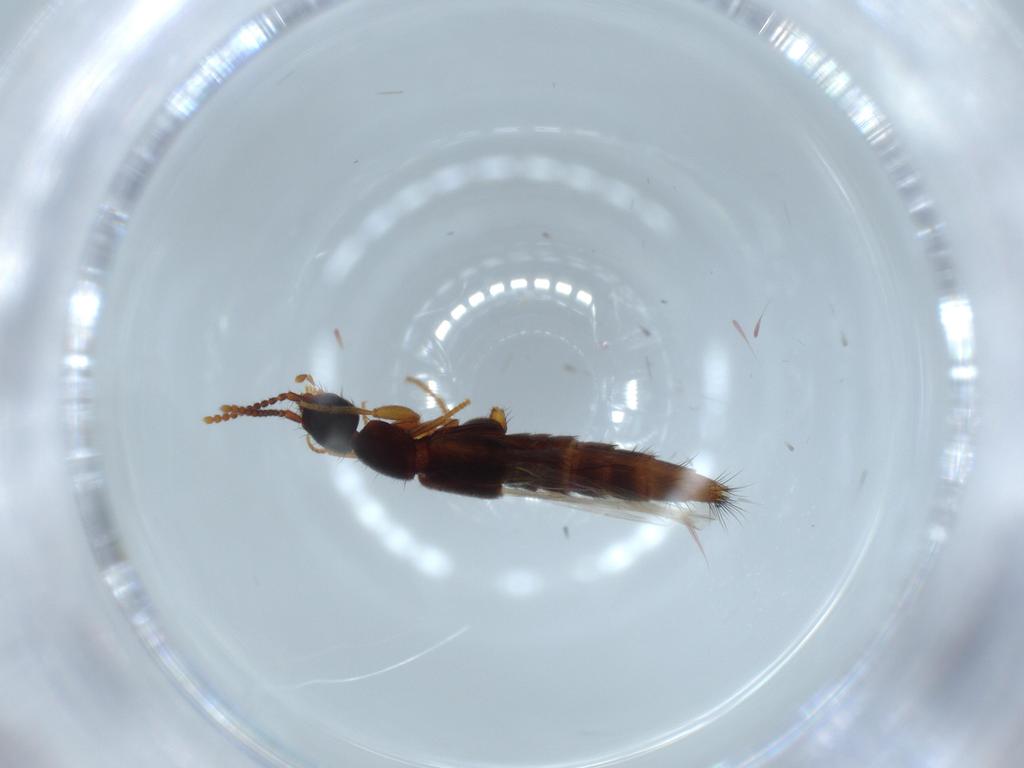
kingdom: Animalia
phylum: Arthropoda
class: Insecta
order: Coleoptera
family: Staphylinidae
